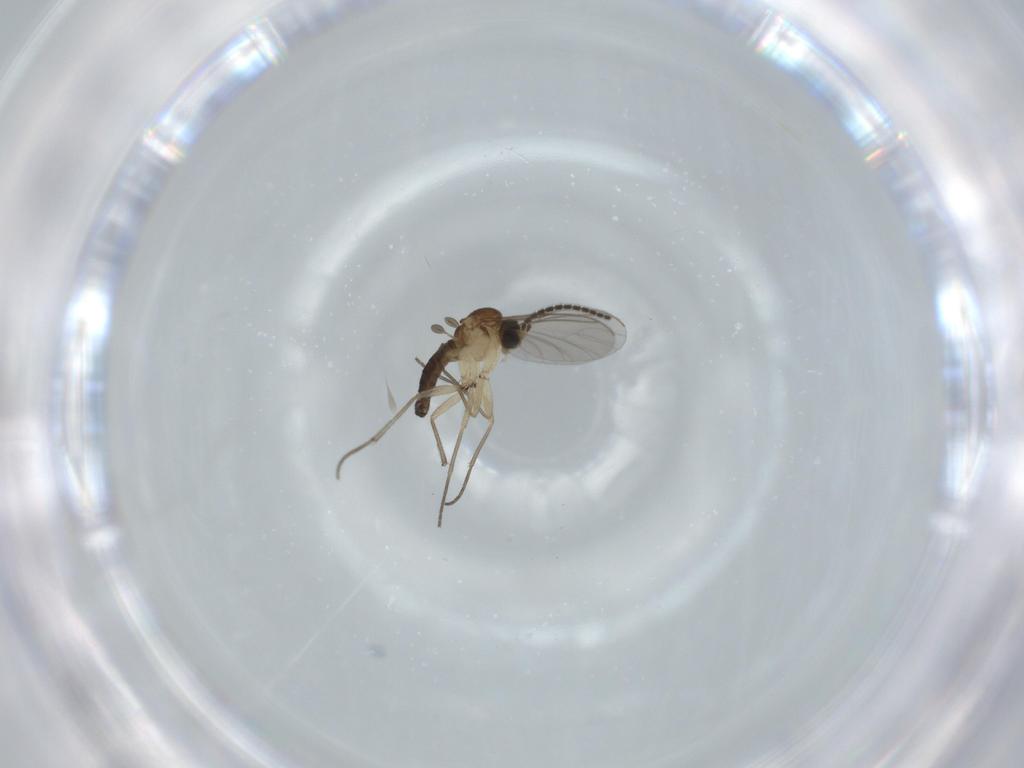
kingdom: Animalia
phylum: Arthropoda
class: Insecta
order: Diptera
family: Sciaridae
